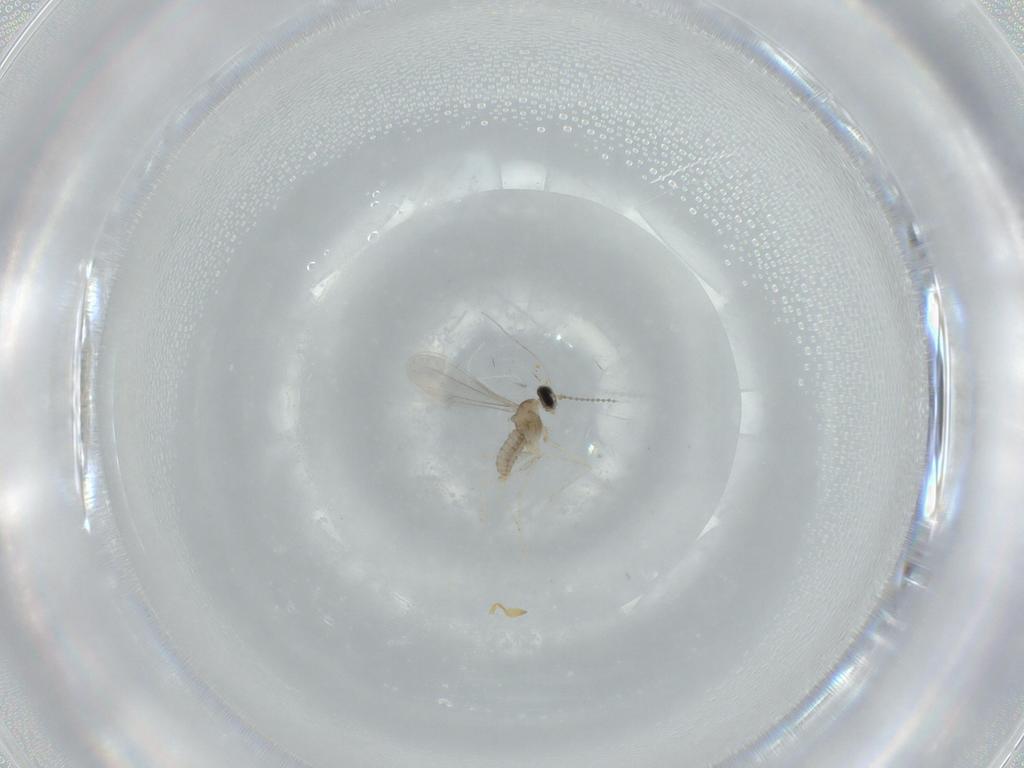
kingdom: Animalia
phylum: Arthropoda
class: Insecta
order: Diptera
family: Cecidomyiidae
